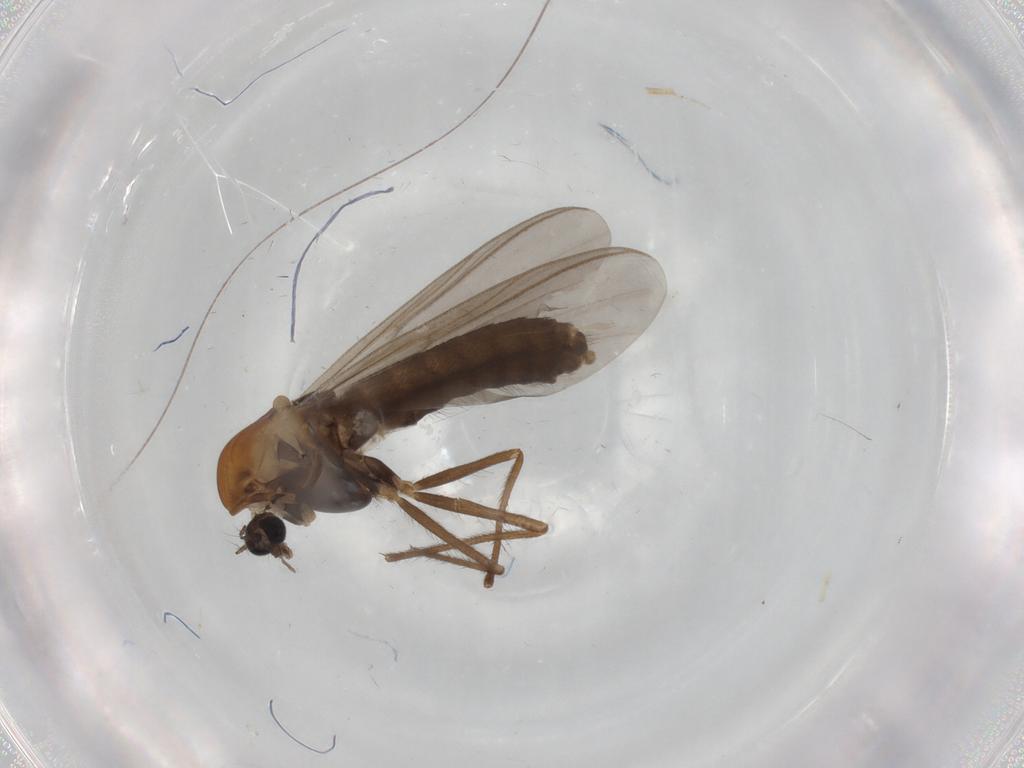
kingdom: Animalia
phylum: Arthropoda
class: Insecta
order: Diptera
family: Chironomidae
